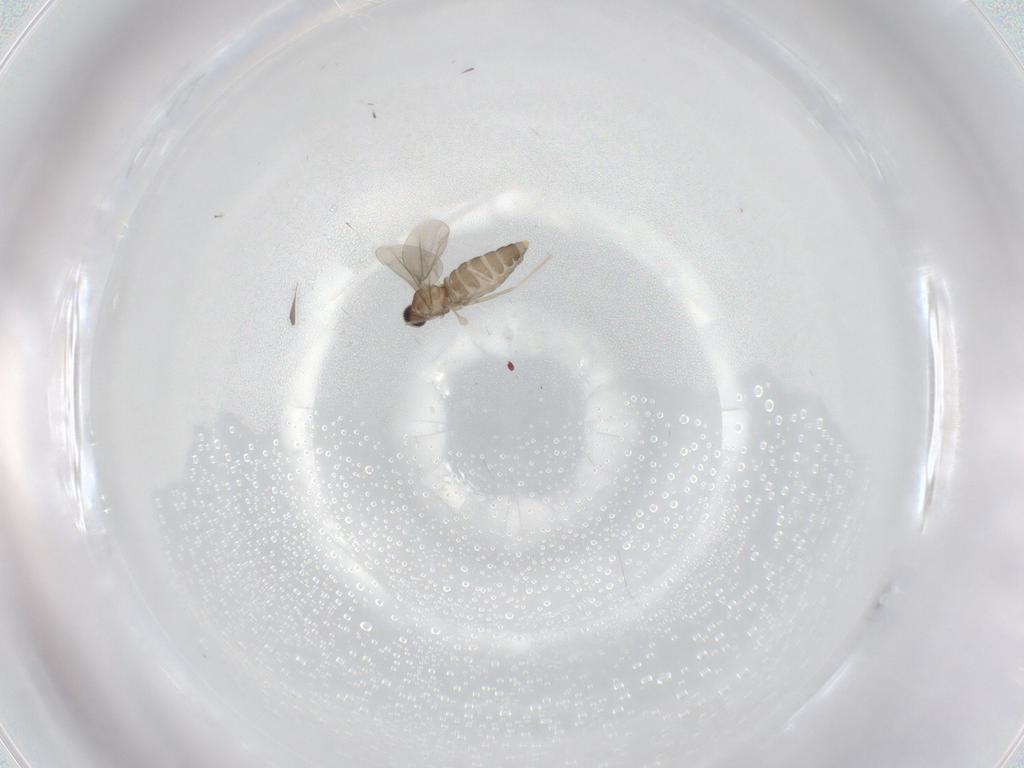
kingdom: Animalia
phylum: Arthropoda
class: Insecta
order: Diptera
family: Cecidomyiidae
